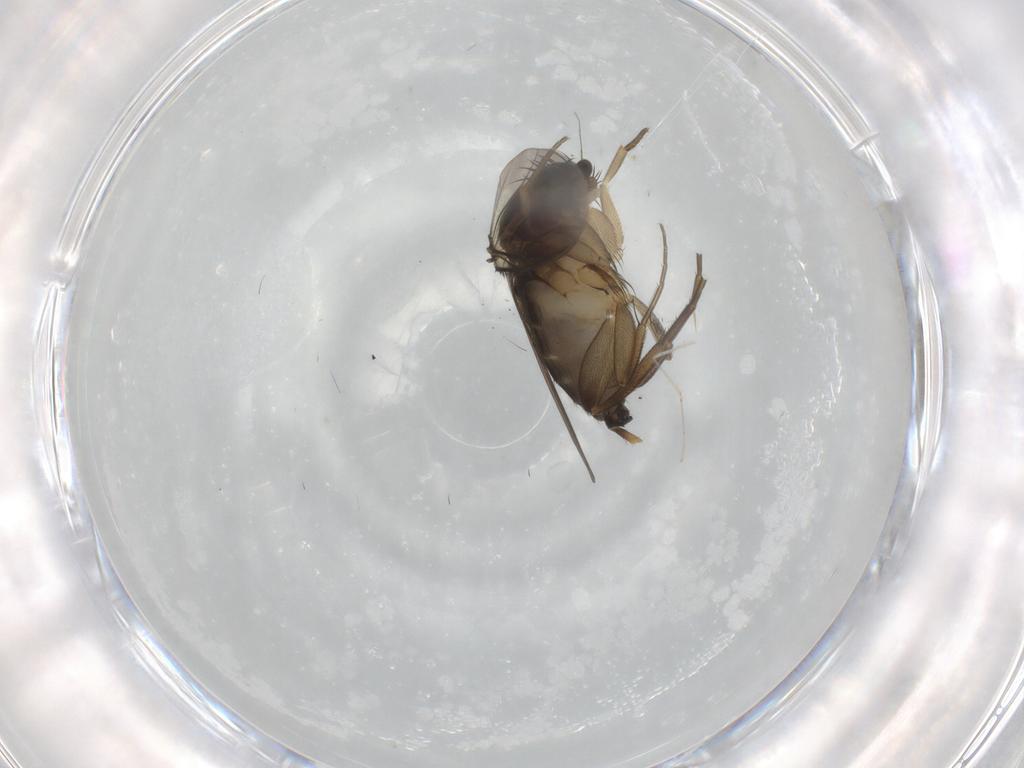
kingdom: Animalia
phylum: Arthropoda
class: Insecta
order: Diptera
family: Phoridae
